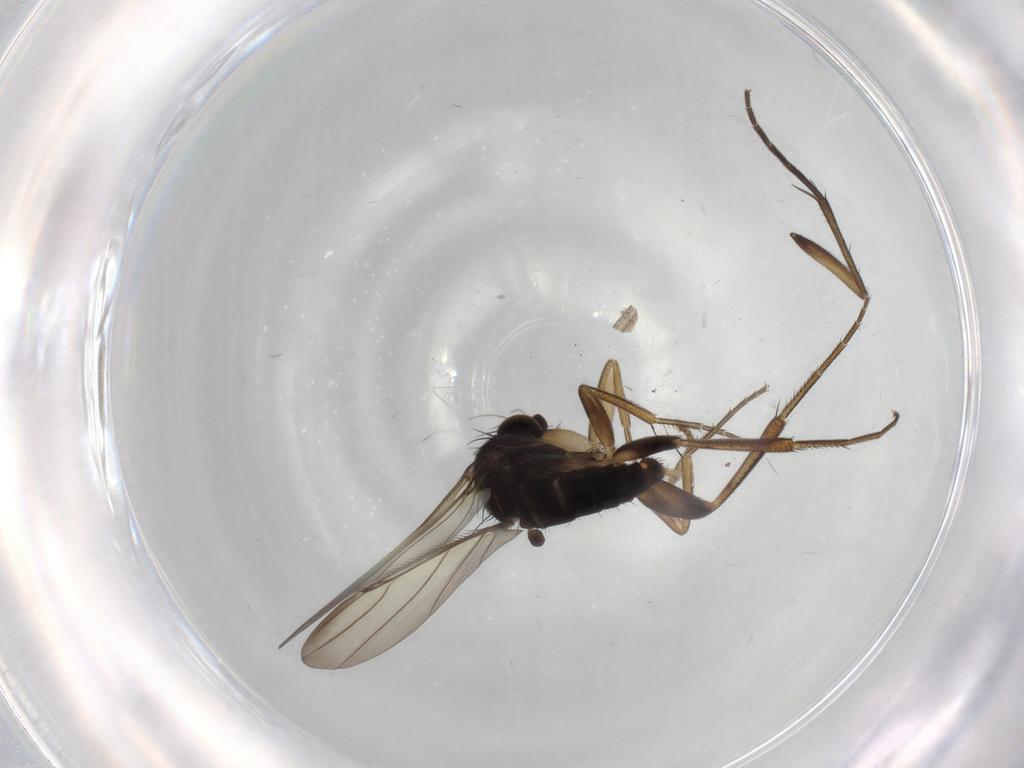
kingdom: Animalia
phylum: Arthropoda
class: Insecta
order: Diptera
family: Phoridae
